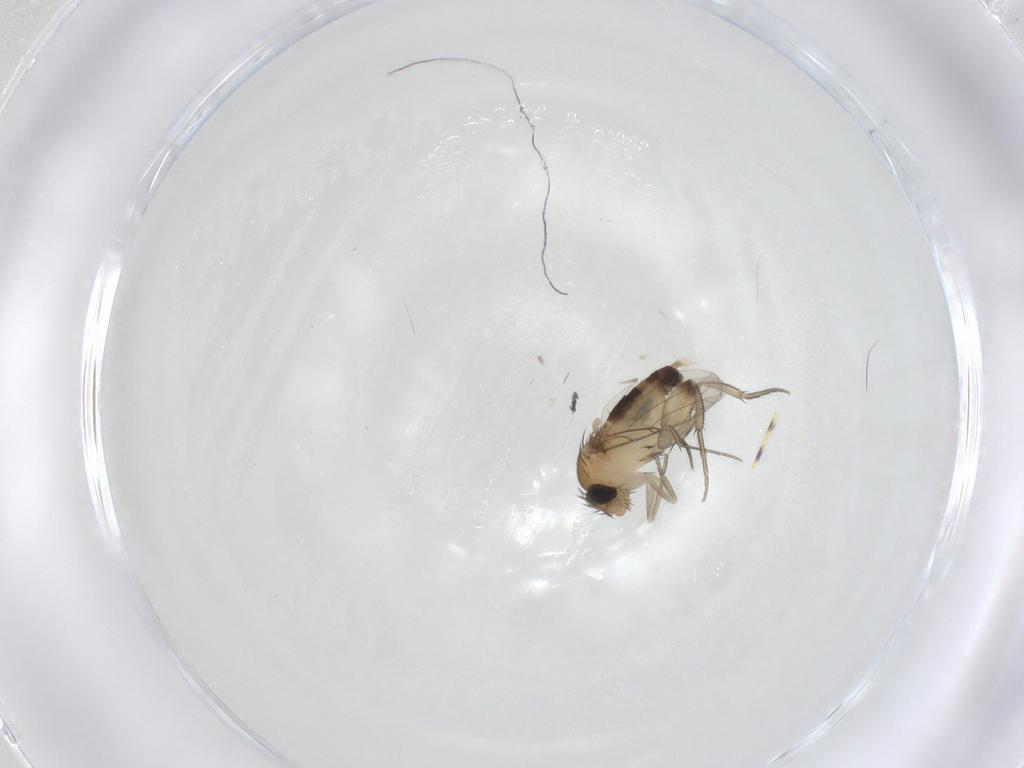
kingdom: Animalia
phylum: Arthropoda
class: Insecta
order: Diptera
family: Phoridae
